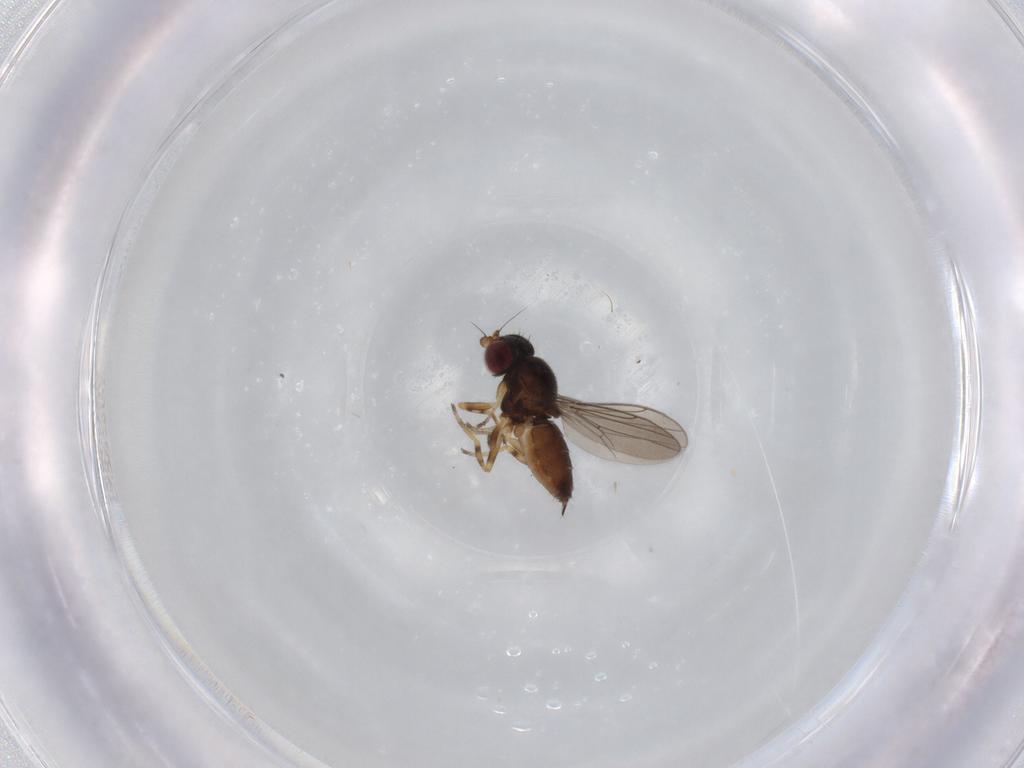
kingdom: Animalia
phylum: Arthropoda
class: Insecta
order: Diptera
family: Chloropidae
